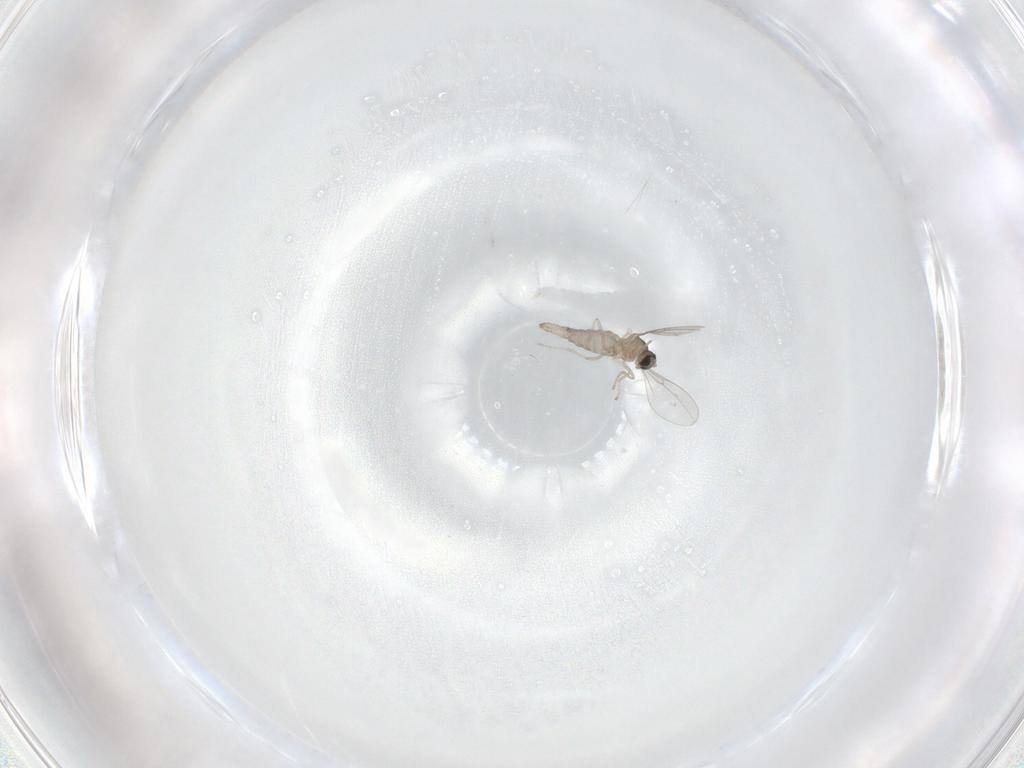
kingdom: Animalia
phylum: Arthropoda
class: Insecta
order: Diptera
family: Cecidomyiidae
